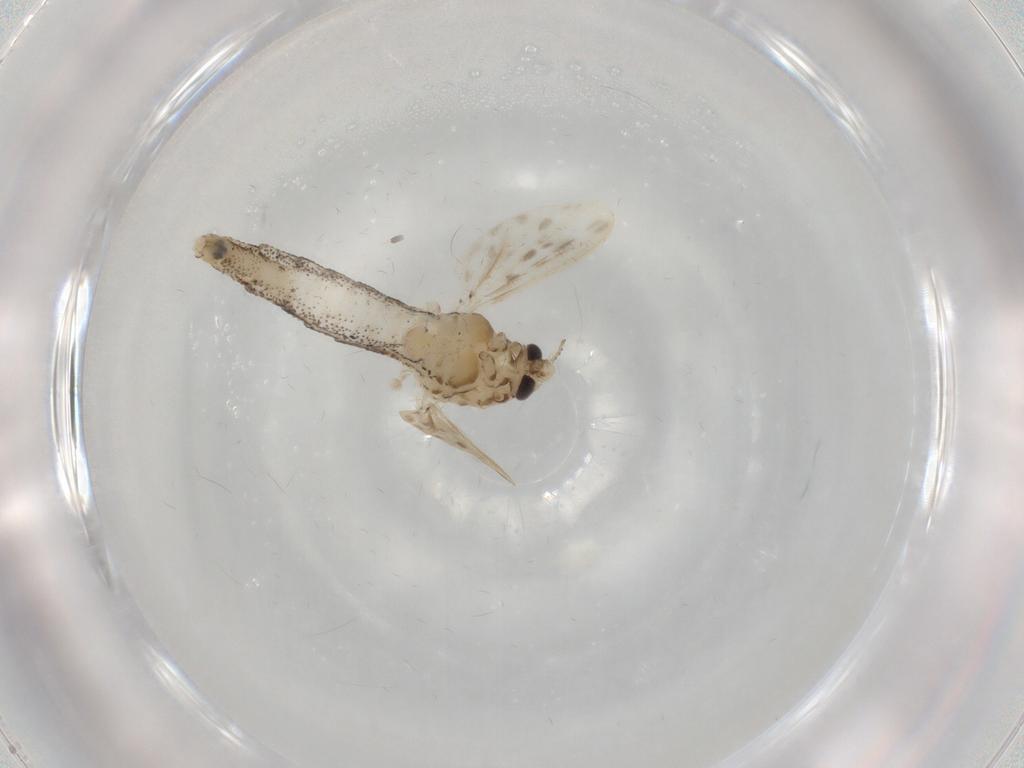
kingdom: Animalia
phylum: Arthropoda
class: Insecta
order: Diptera
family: Chaoboridae
